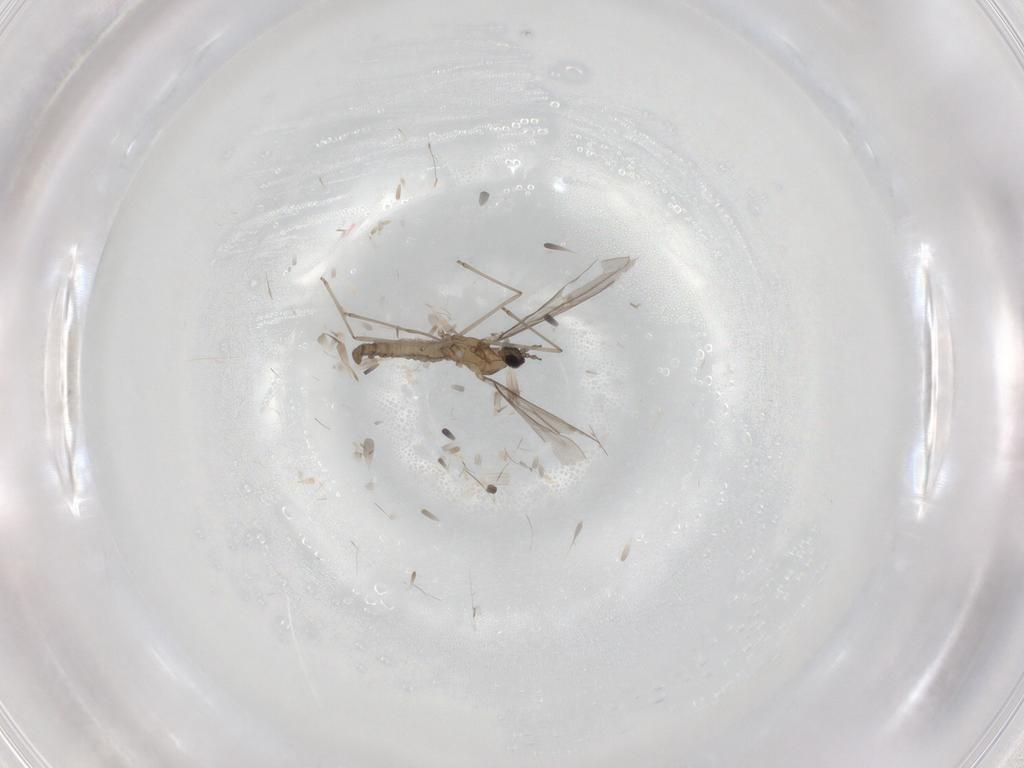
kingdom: Animalia
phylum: Arthropoda
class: Insecta
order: Diptera
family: Cecidomyiidae
